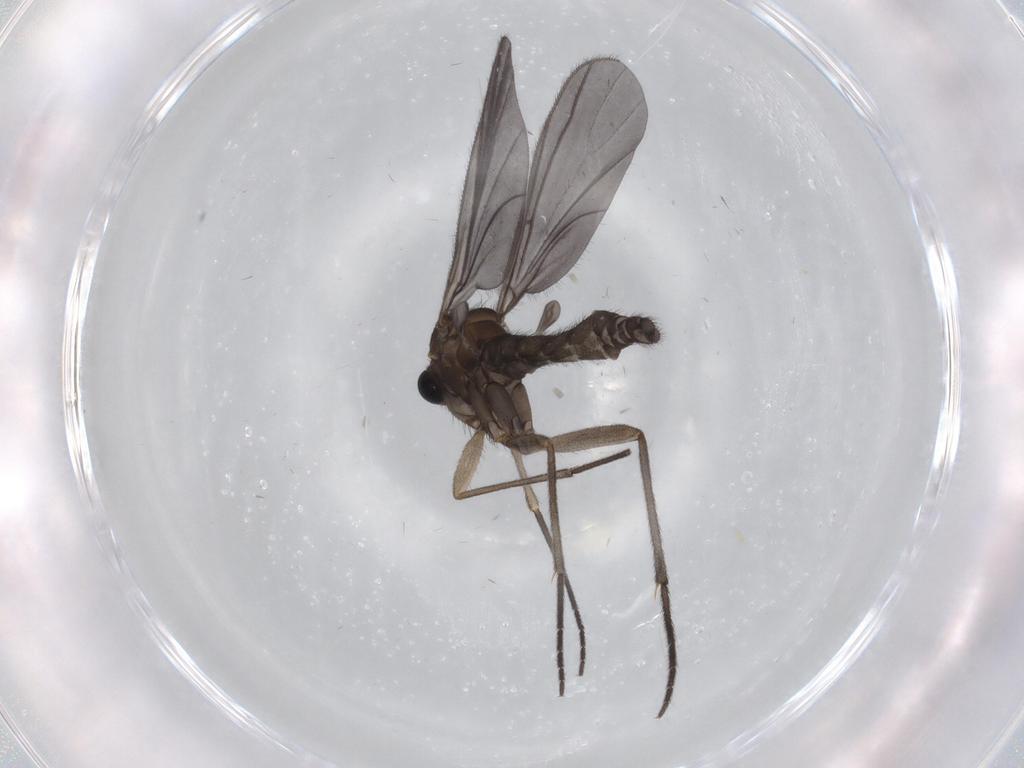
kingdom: Animalia
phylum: Arthropoda
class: Insecta
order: Diptera
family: Sciaridae
